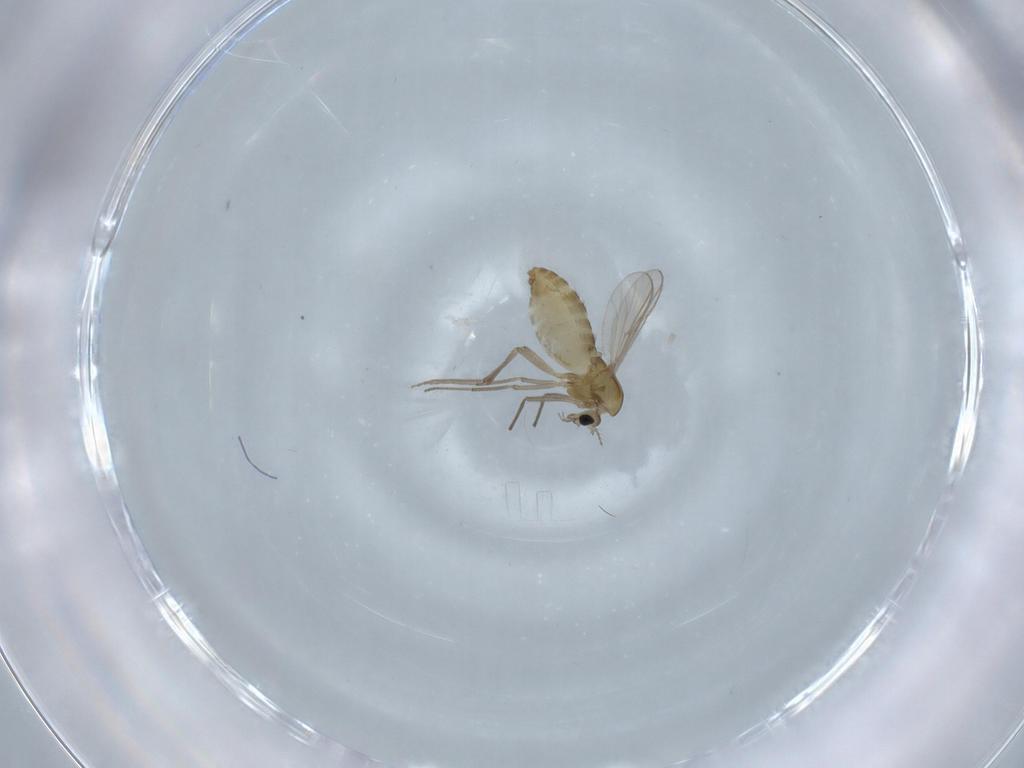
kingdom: Animalia
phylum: Arthropoda
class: Insecta
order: Diptera
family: Chironomidae
